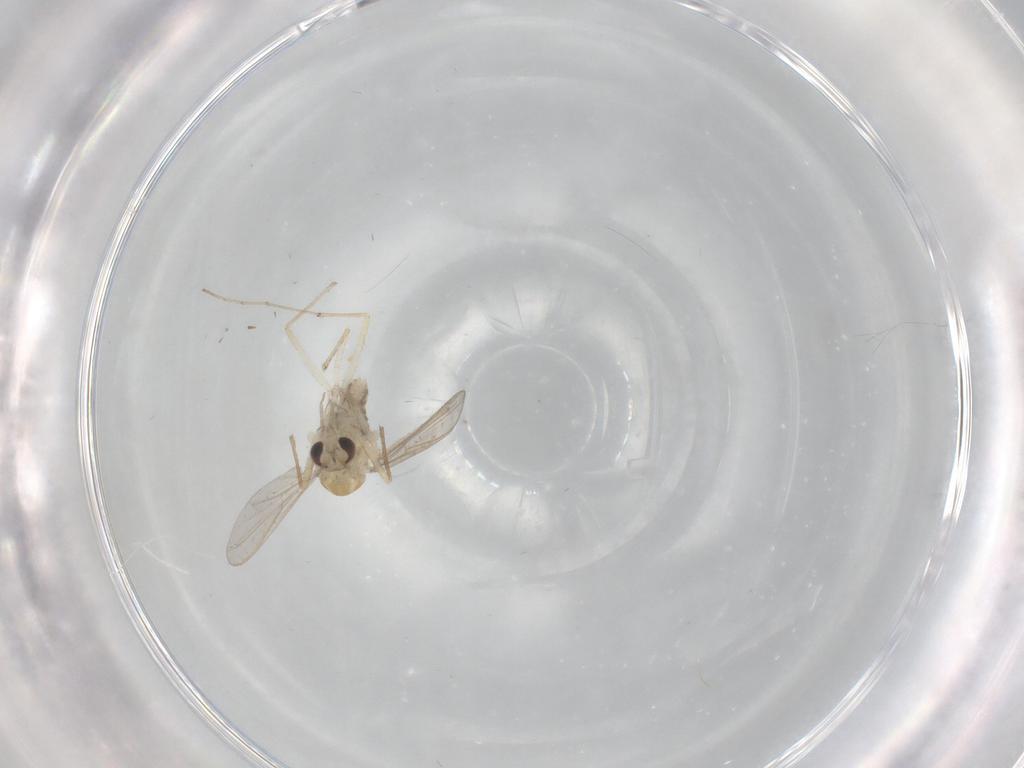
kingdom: Animalia
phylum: Arthropoda
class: Insecta
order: Diptera
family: Chironomidae
